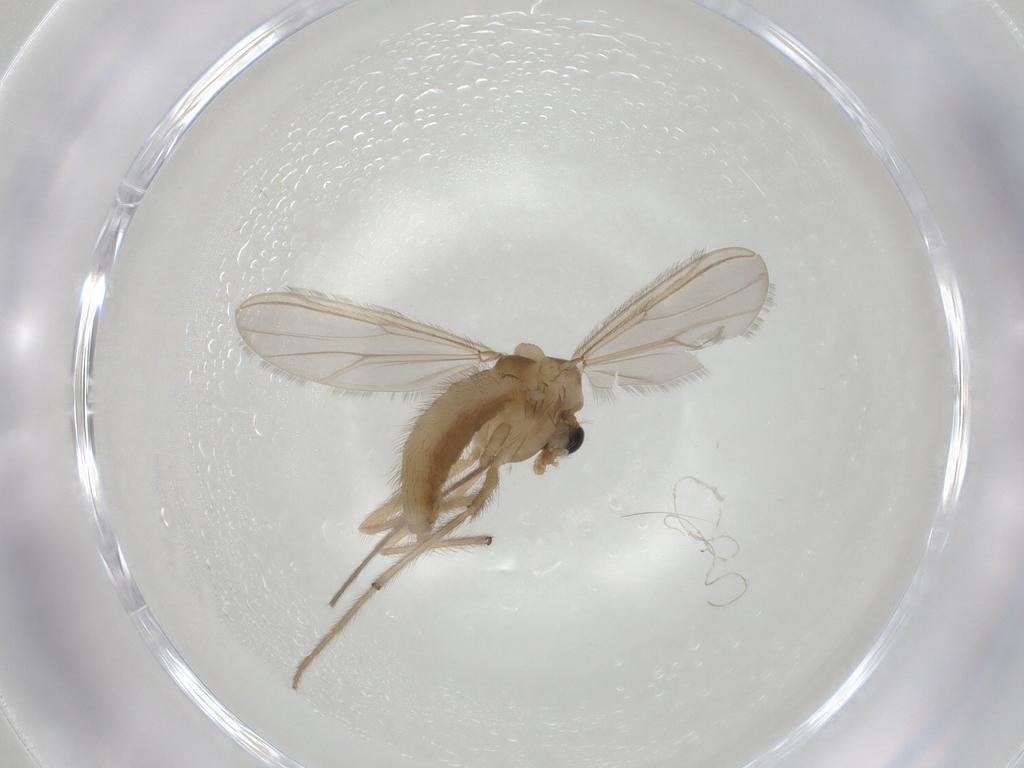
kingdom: Animalia
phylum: Arthropoda
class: Insecta
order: Diptera
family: Chironomidae
